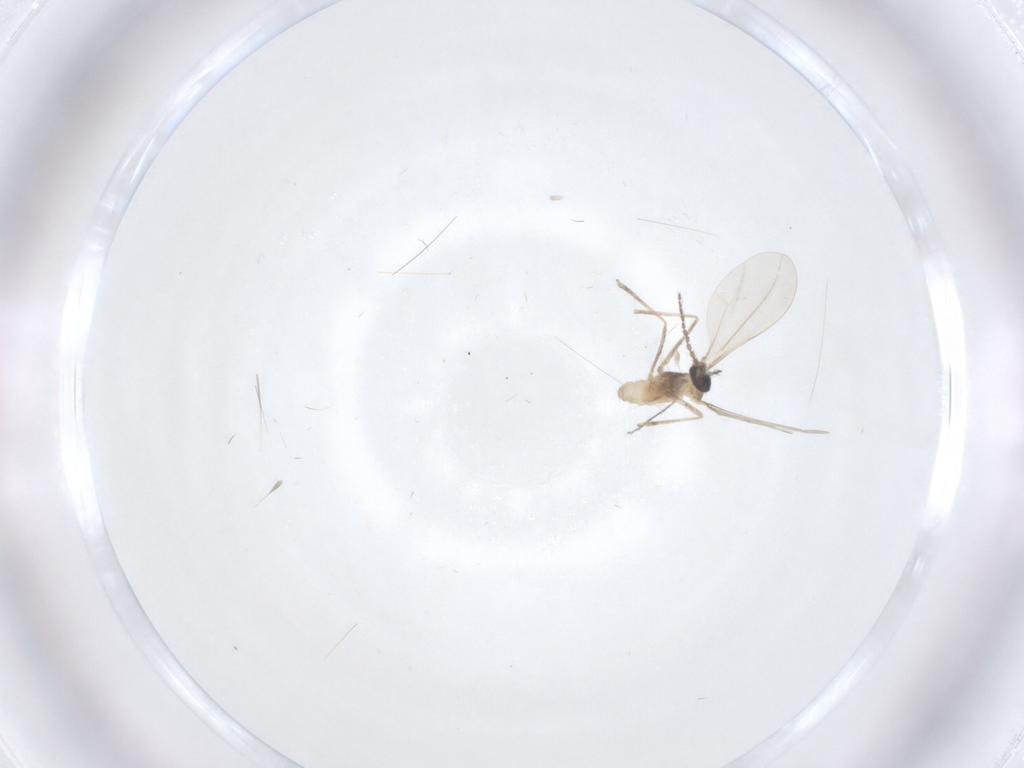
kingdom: Animalia
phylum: Arthropoda
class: Insecta
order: Diptera
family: Cecidomyiidae
